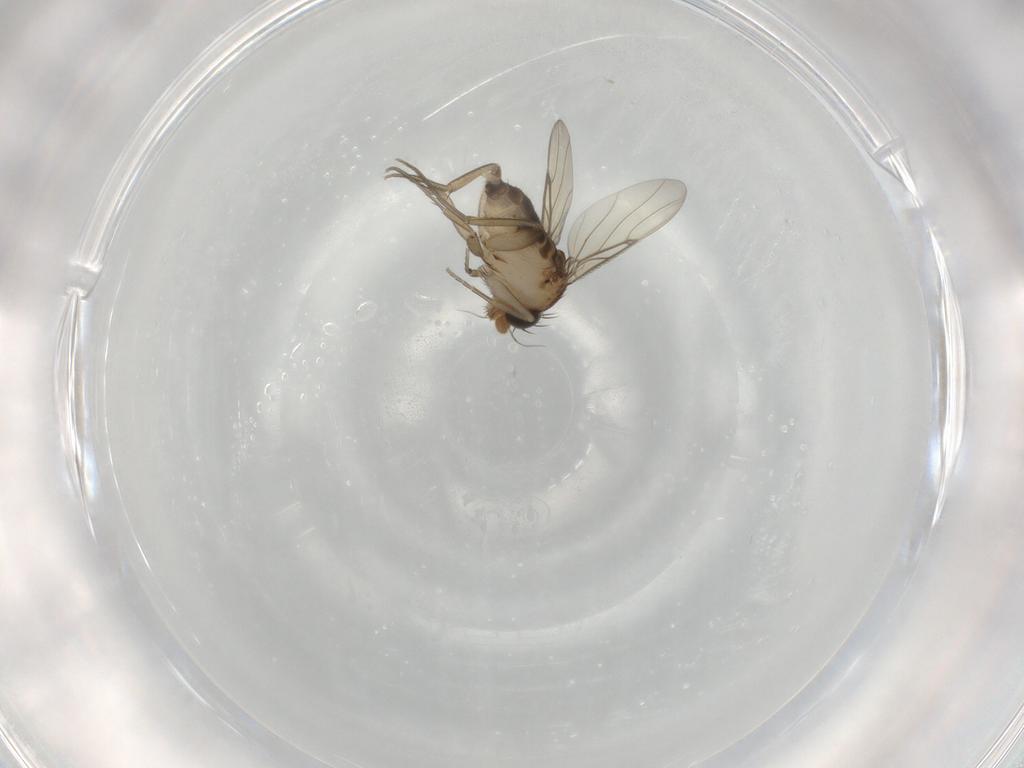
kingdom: Animalia
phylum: Arthropoda
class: Insecta
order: Diptera
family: Phoridae
